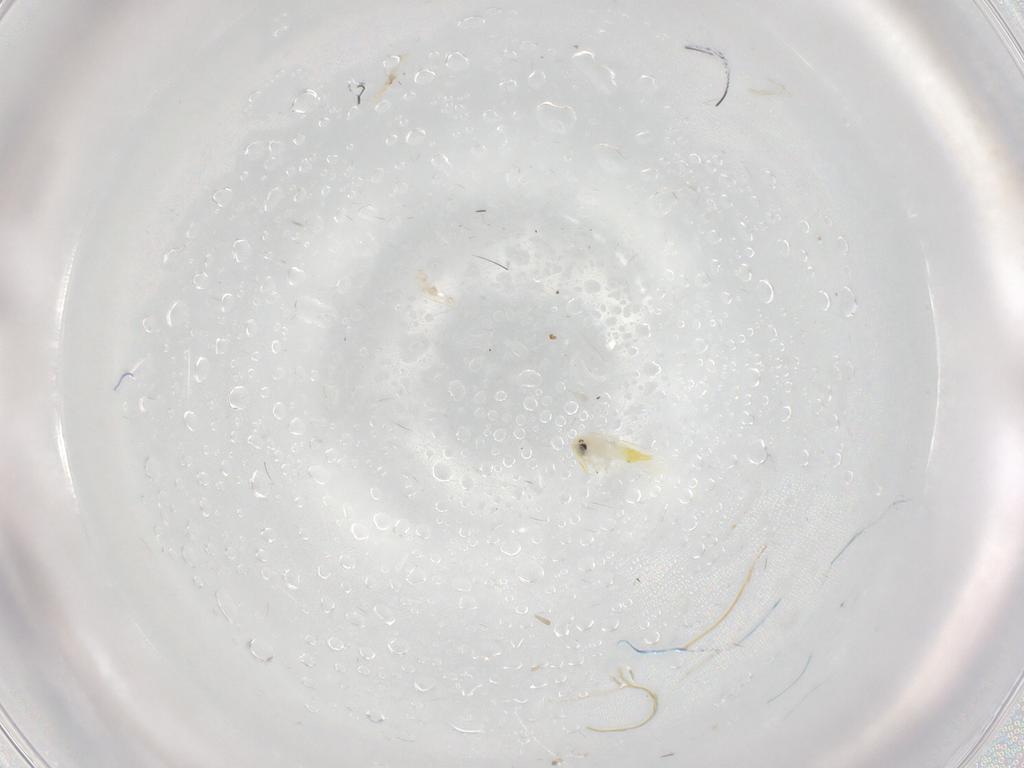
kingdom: Animalia
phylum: Arthropoda
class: Insecta
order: Hemiptera
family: Aleyrodidae
